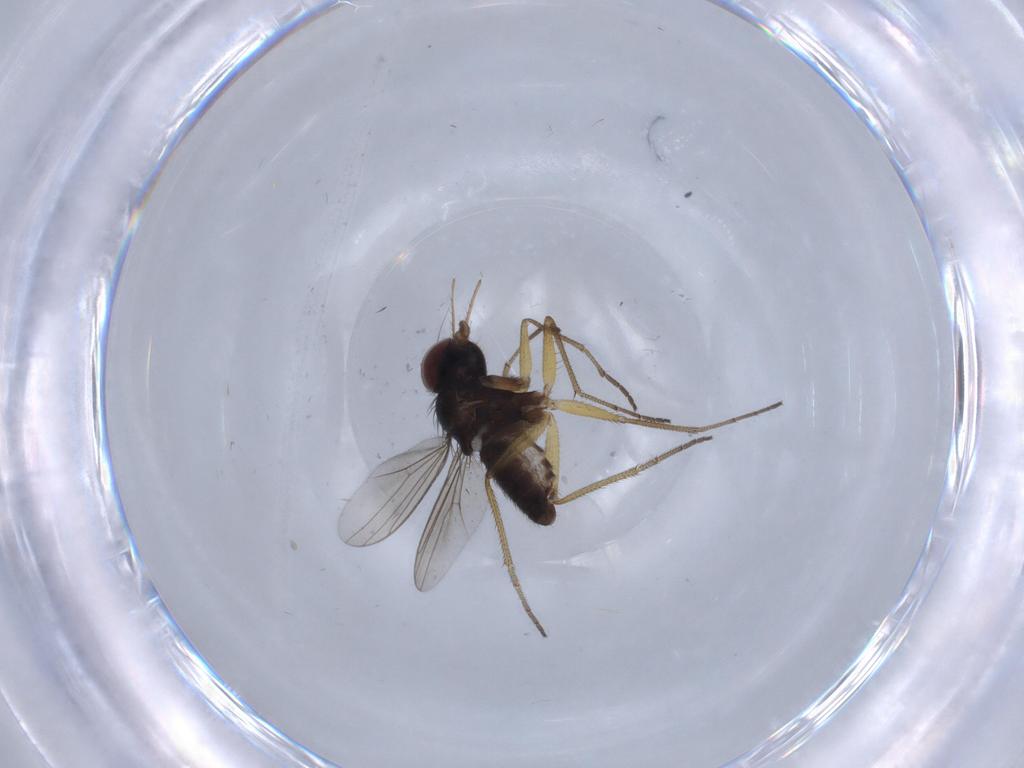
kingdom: Animalia
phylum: Arthropoda
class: Insecta
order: Diptera
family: Dolichopodidae
